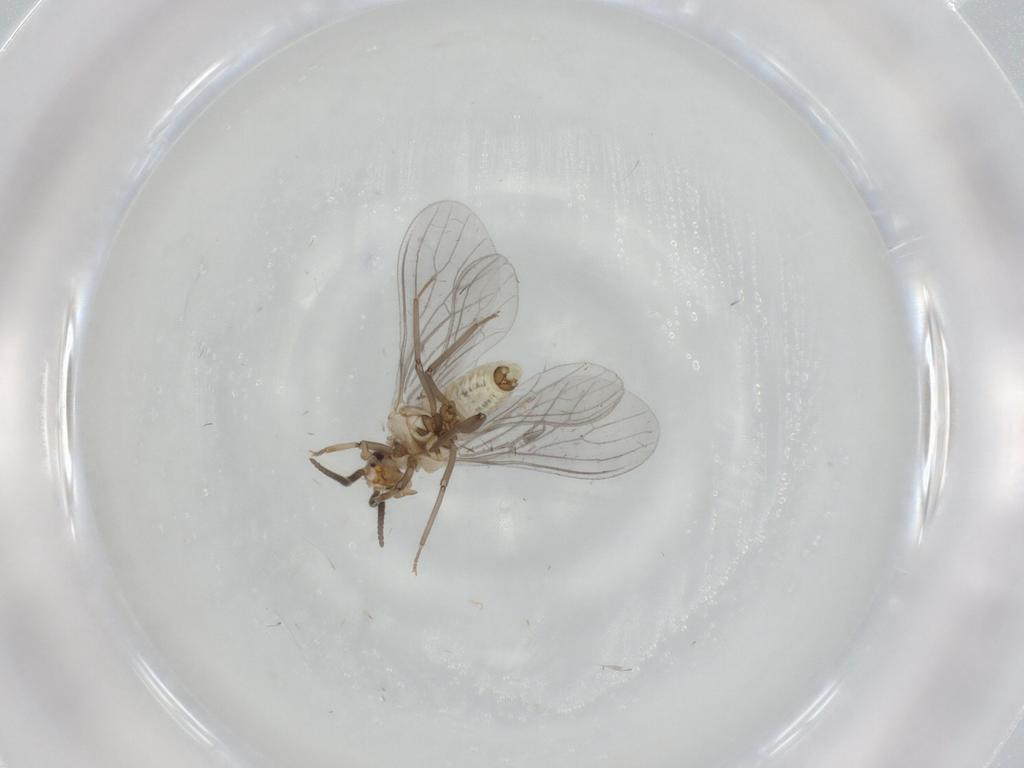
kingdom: Animalia
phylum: Arthropoda
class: Insecta
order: Neuroptera
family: Coniopterygidae
